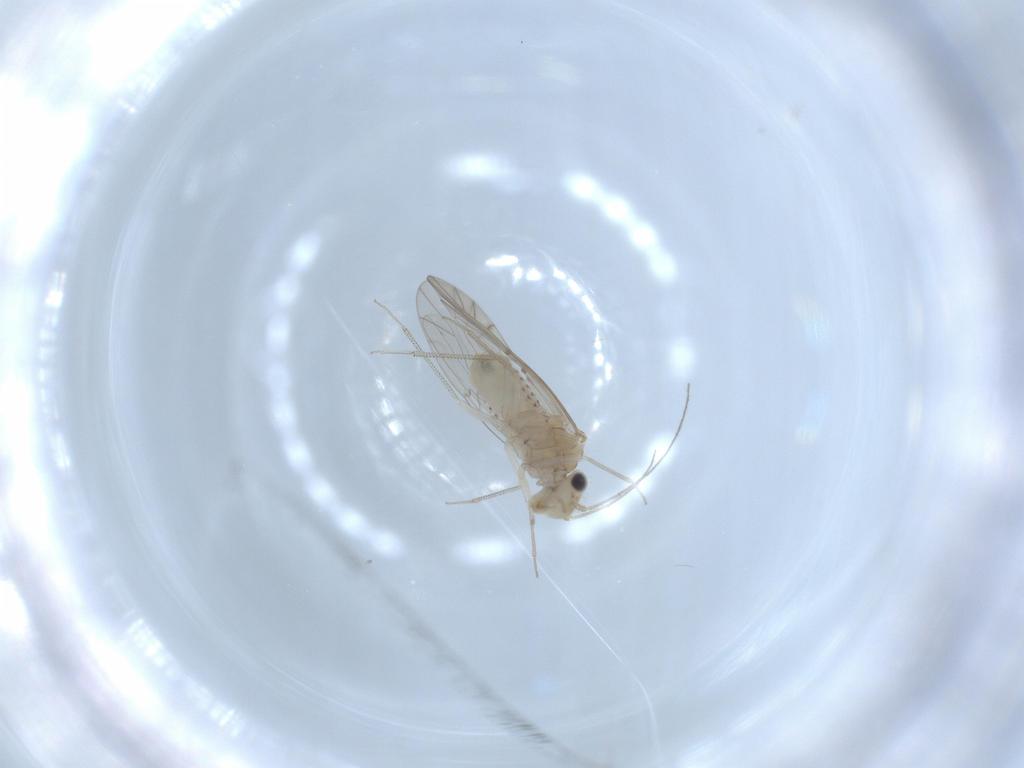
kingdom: Animalia
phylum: Arthropoda
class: Insecta
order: Psocodea
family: Lachesillidae
